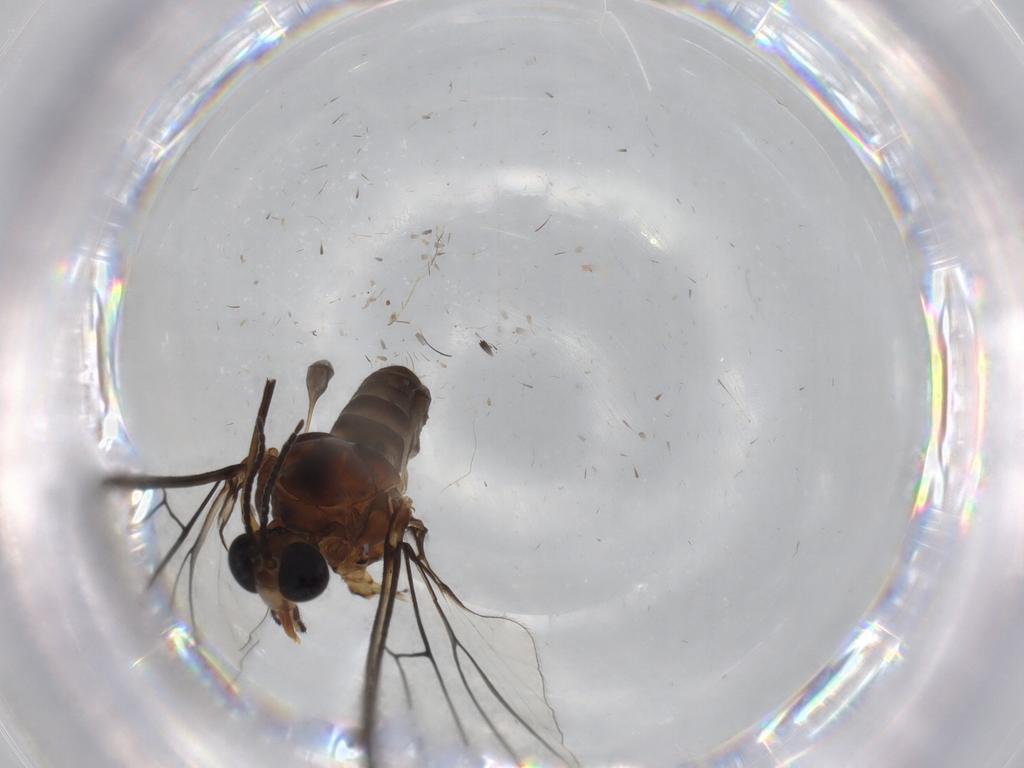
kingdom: Animalia
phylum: Arthropoda
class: Insecta
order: Diptera
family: Blephariceridae
